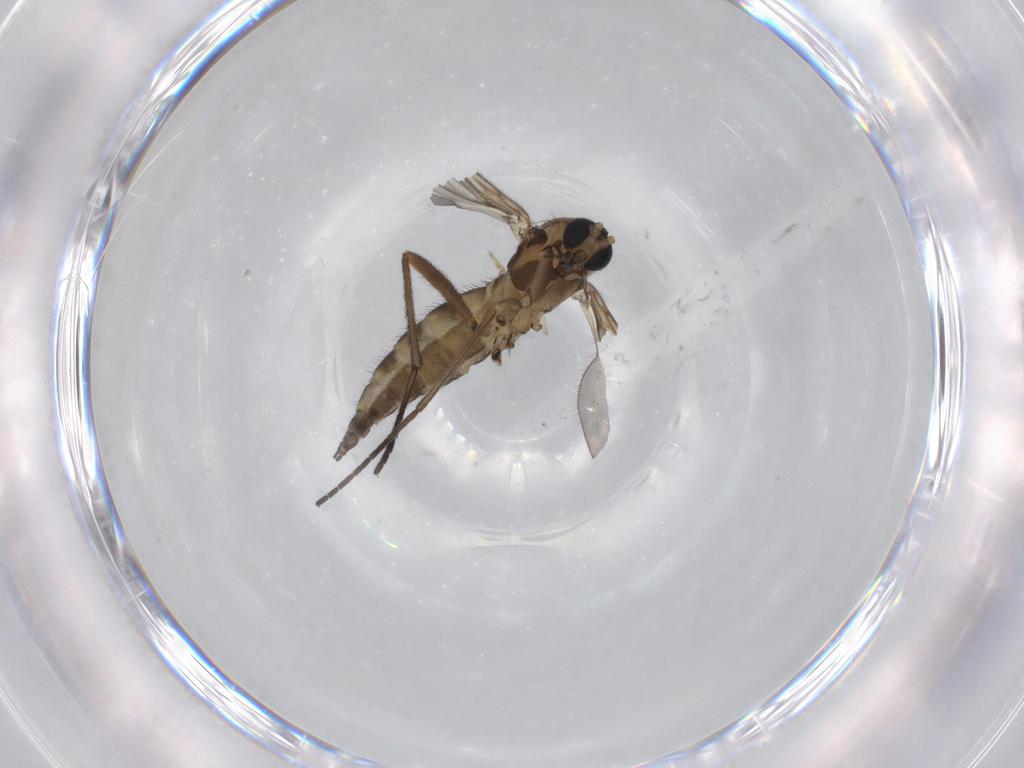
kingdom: Animalia
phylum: Arthropoda
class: Insecta
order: Diptera
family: Sciaridae
